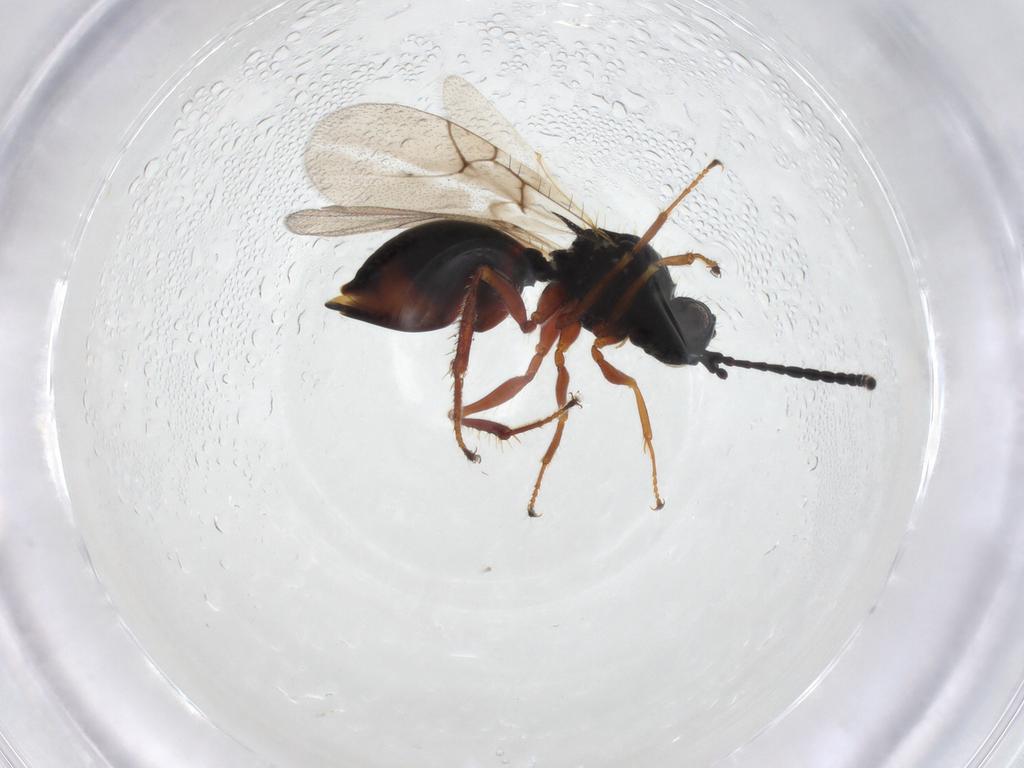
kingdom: Animalia
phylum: Arthropoda
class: Insecta
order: Hymenoptera
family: Figitidae
